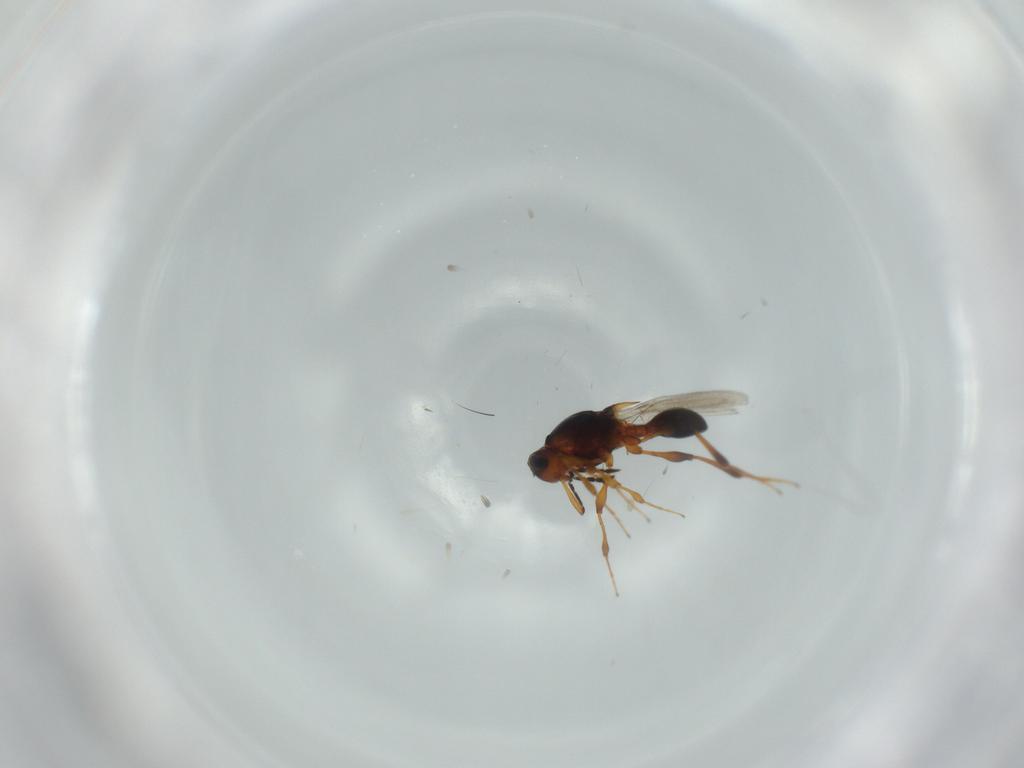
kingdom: Animalia
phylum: Arthropoda
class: Insecta
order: Hymenoptera
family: Platygastridae
